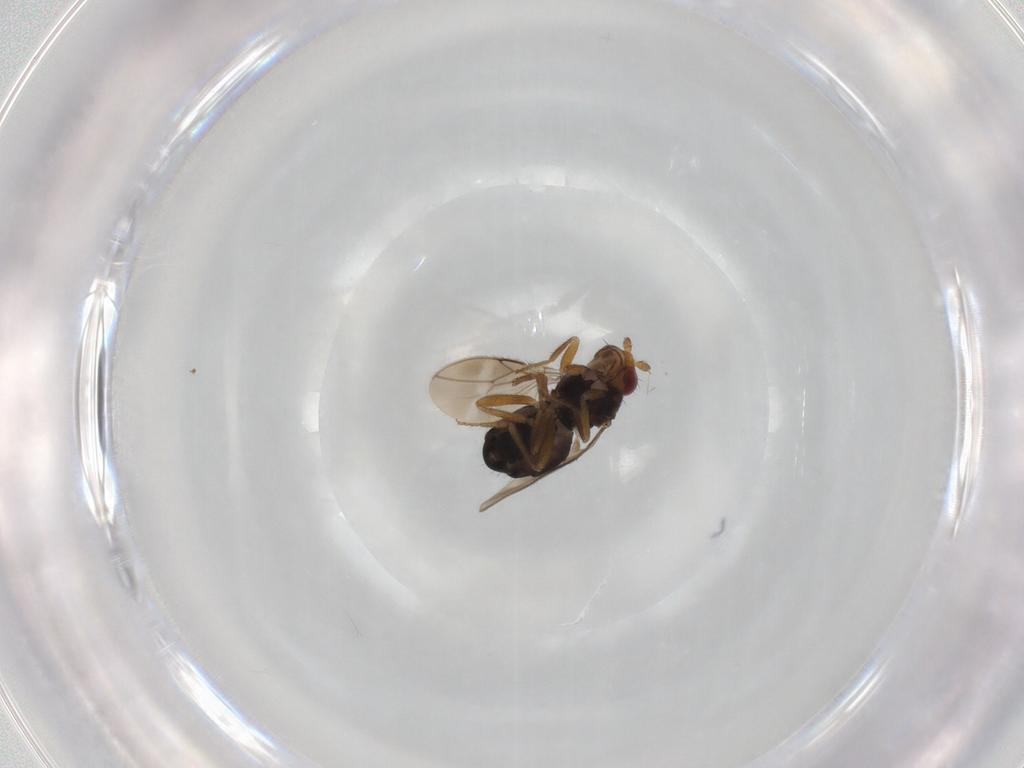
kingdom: Animalia
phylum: Arthropoda
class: Insecta
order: Diptera
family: Sphaeroceridae
